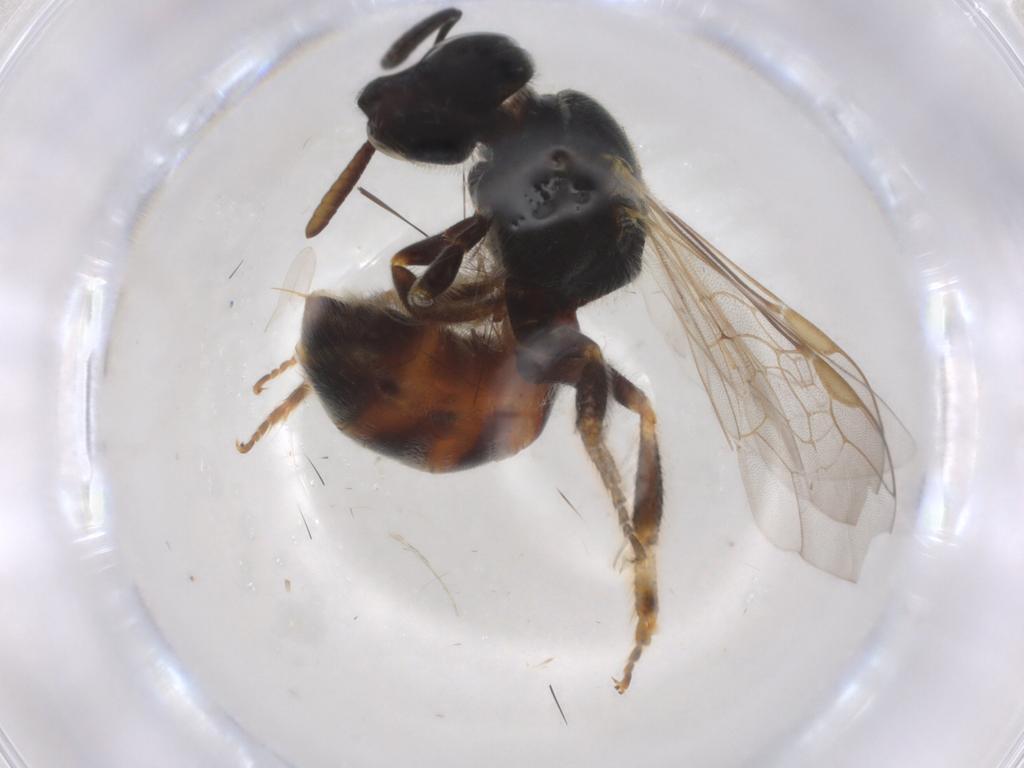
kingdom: Animalia
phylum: Arthropoda
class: Insecta
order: Hymenoptera
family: Halictidae
